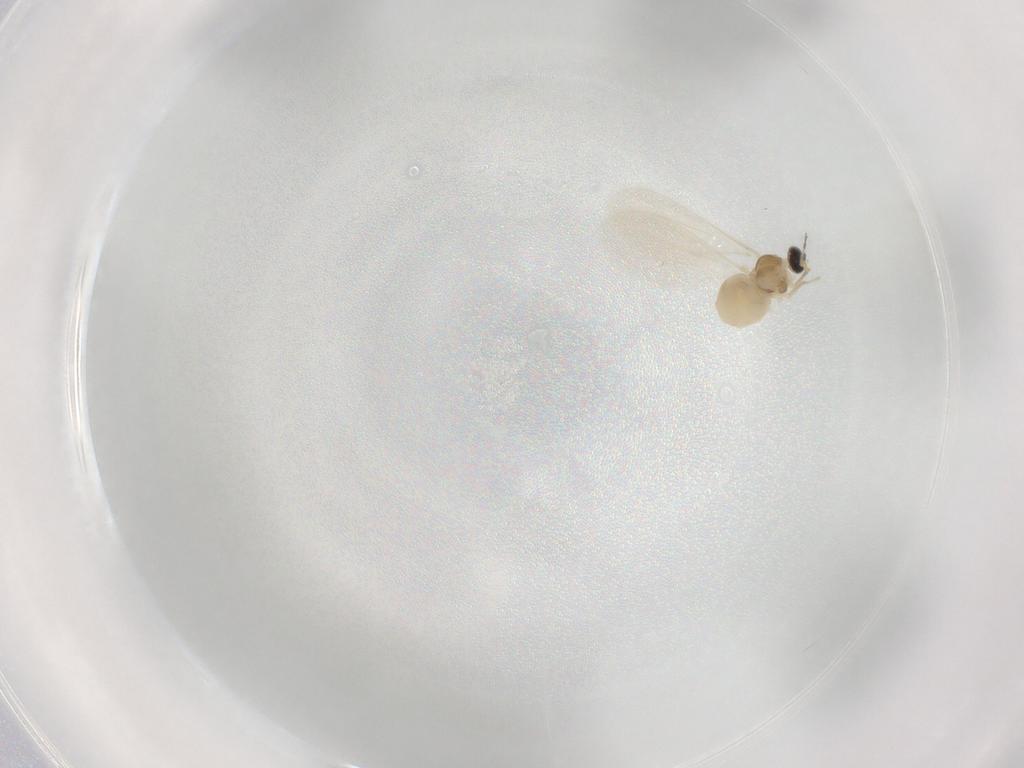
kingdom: Animalia
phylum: Arthropoda
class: Insecta
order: Diptera
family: Cecidomyiidae
